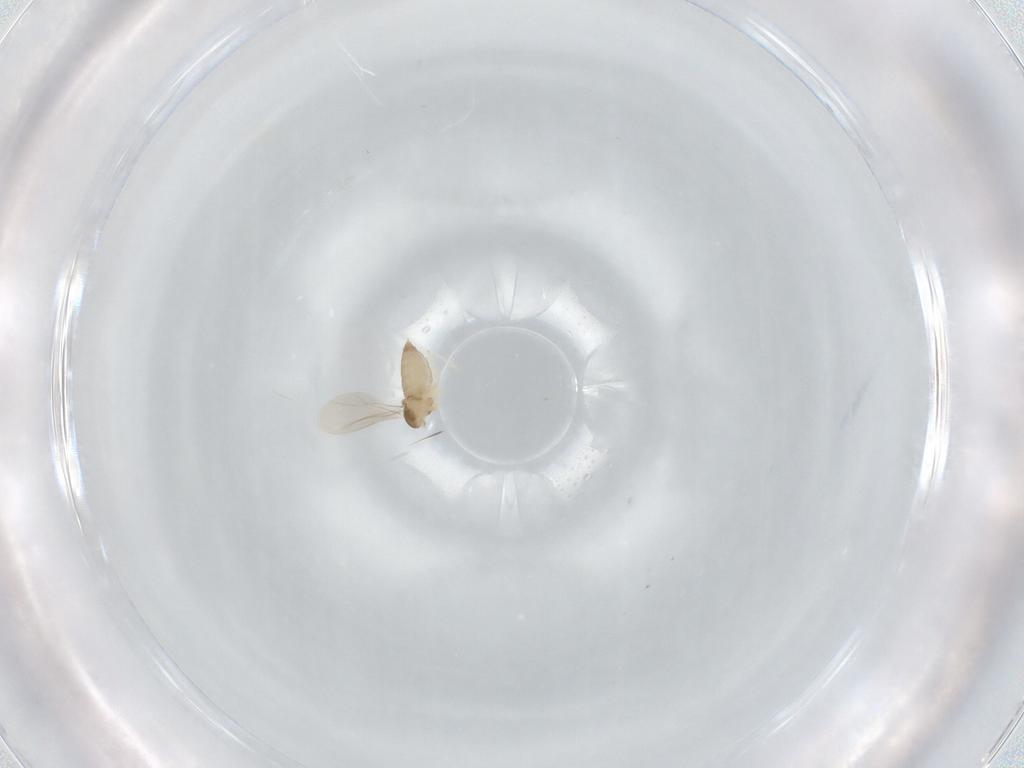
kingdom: Animalia
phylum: Arthropoda
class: Insecta
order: Diptera
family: Cecidomyiidae
